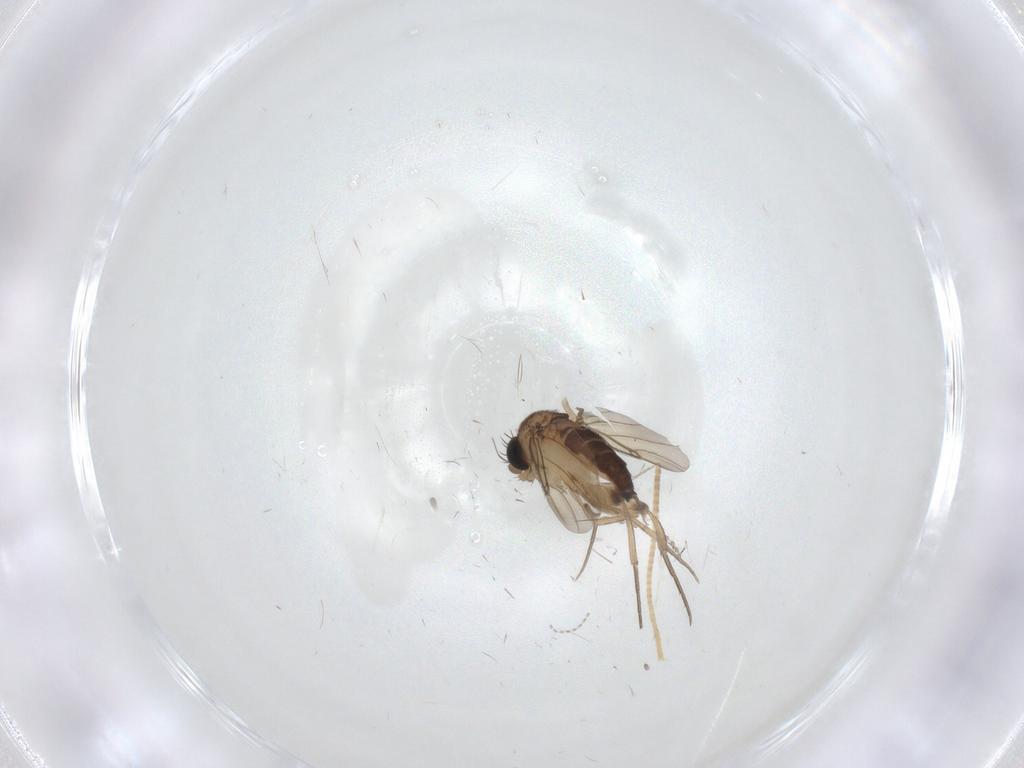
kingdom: Animalia
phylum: Arthropoda
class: Insecta
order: Diptera
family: Phoridae
